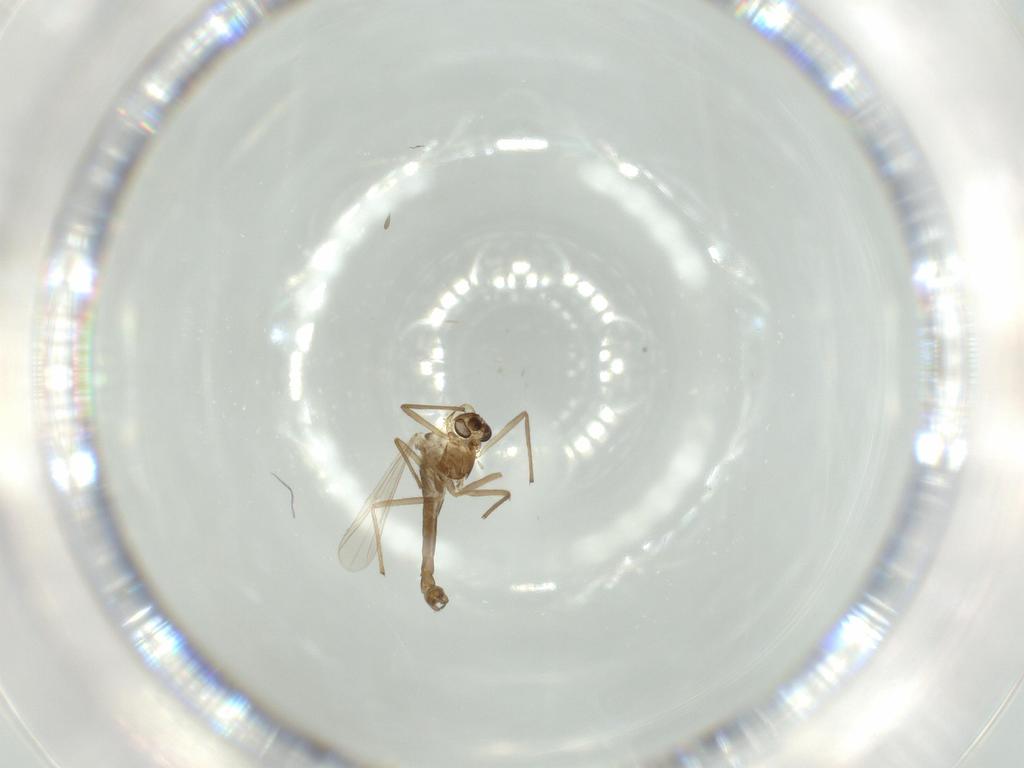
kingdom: Animalia
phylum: Arthropoda
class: Insecta
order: Diptera
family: Chironomidae
